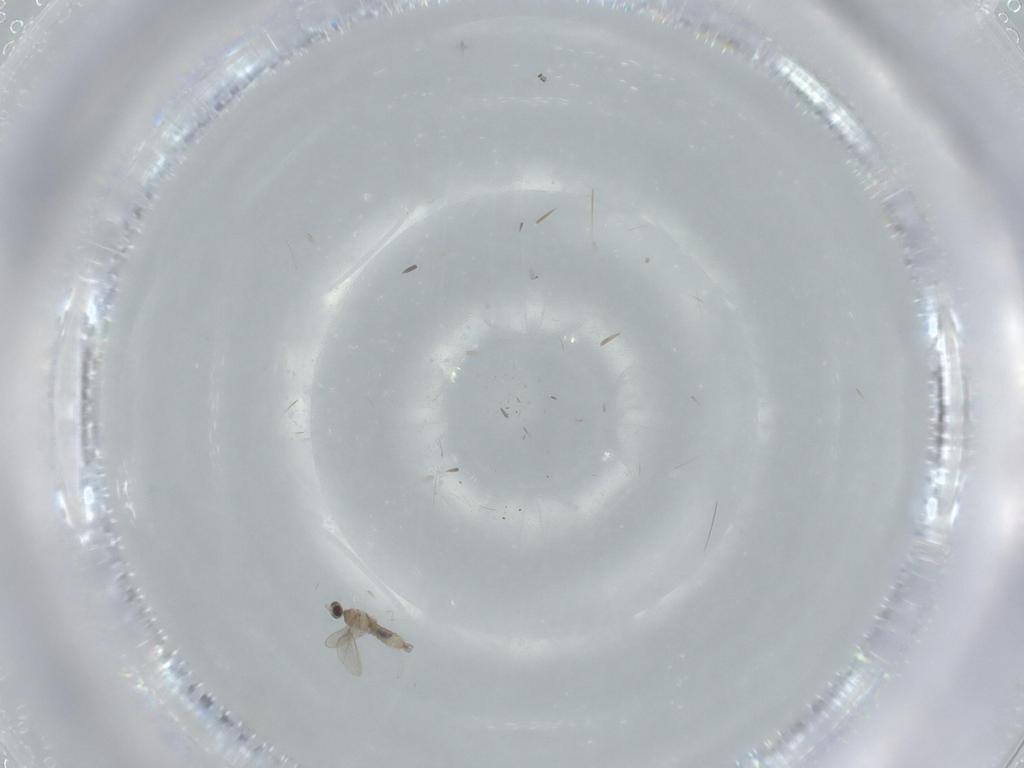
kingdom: Animalia
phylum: Arthropoda
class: Insecta
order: Diptera
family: Cecidomyiidae
